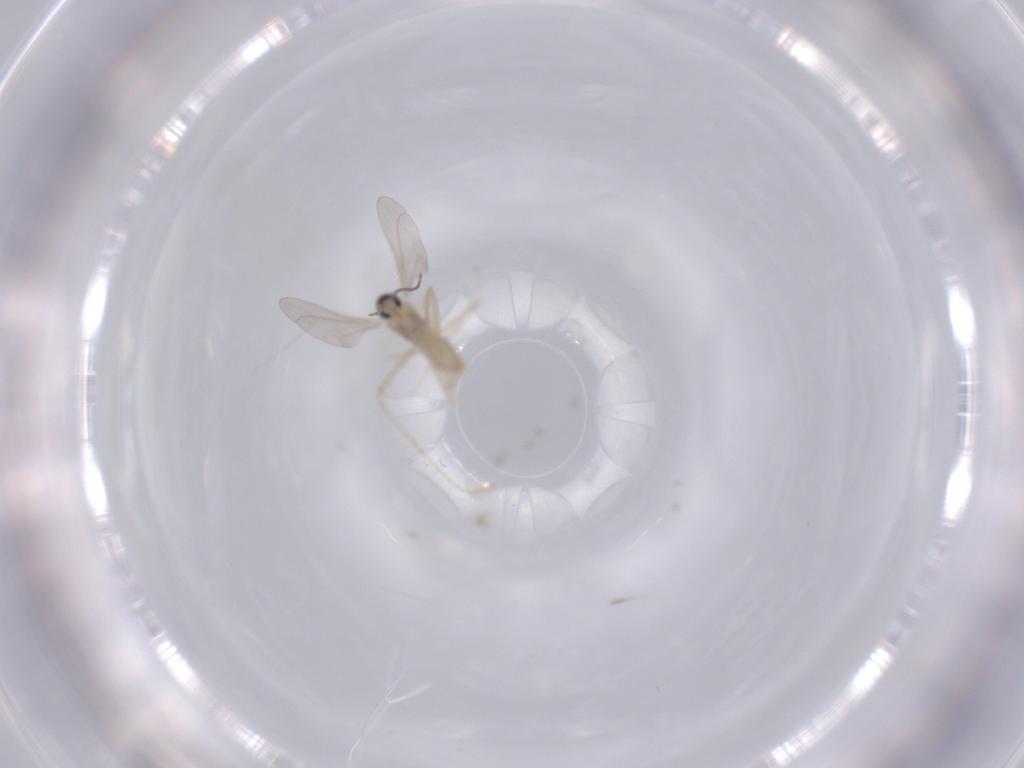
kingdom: Animalia
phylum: Arthropoda
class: Insecta
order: Diptera
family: Cecidomyiidae
